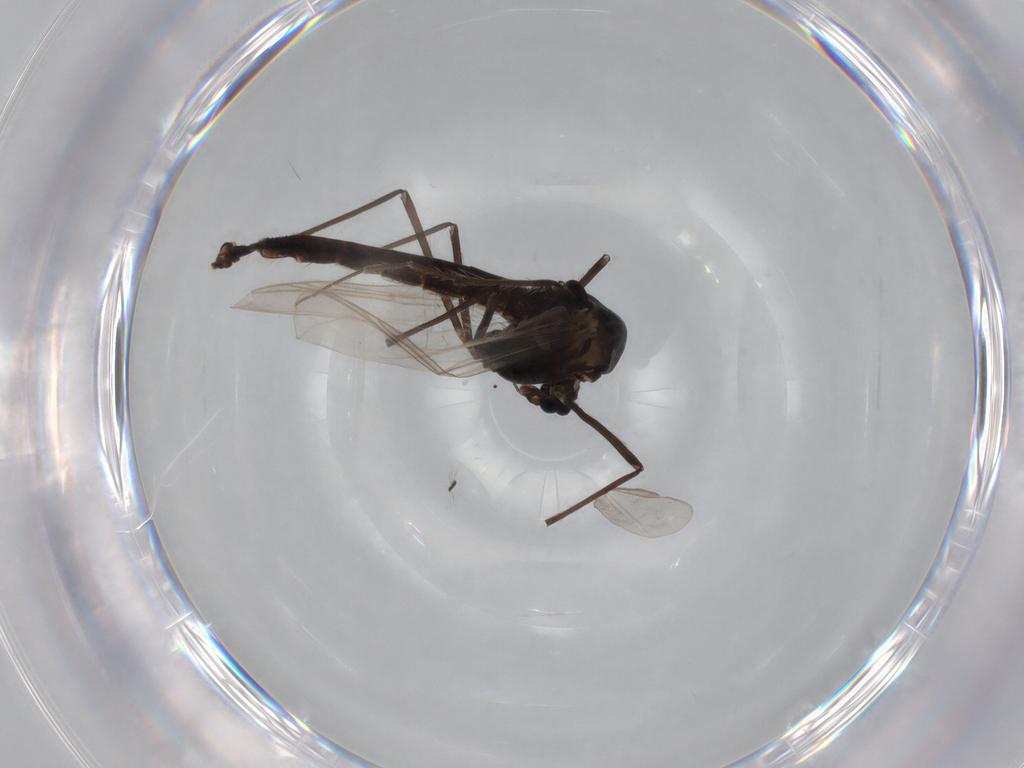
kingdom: Animalia
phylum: Arthropoda
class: Insecta
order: Diptera
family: Chironomidae
